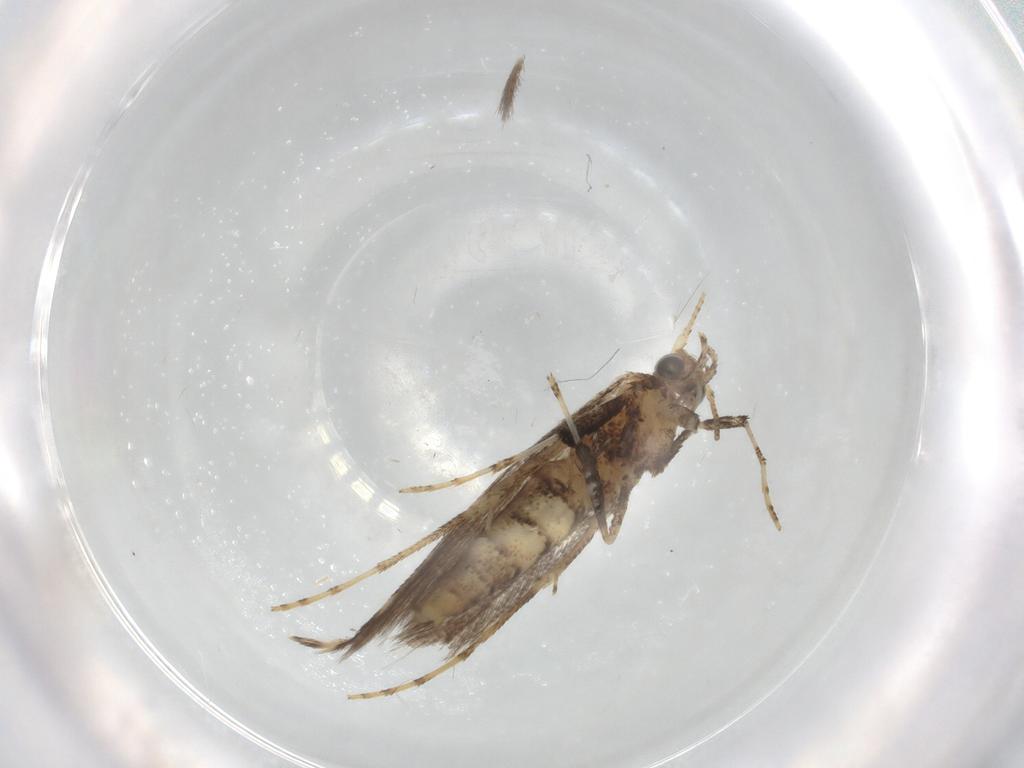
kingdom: Animalia
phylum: Arthropoda
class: Insecta
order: Lepidoptera
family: Gracillariidae
